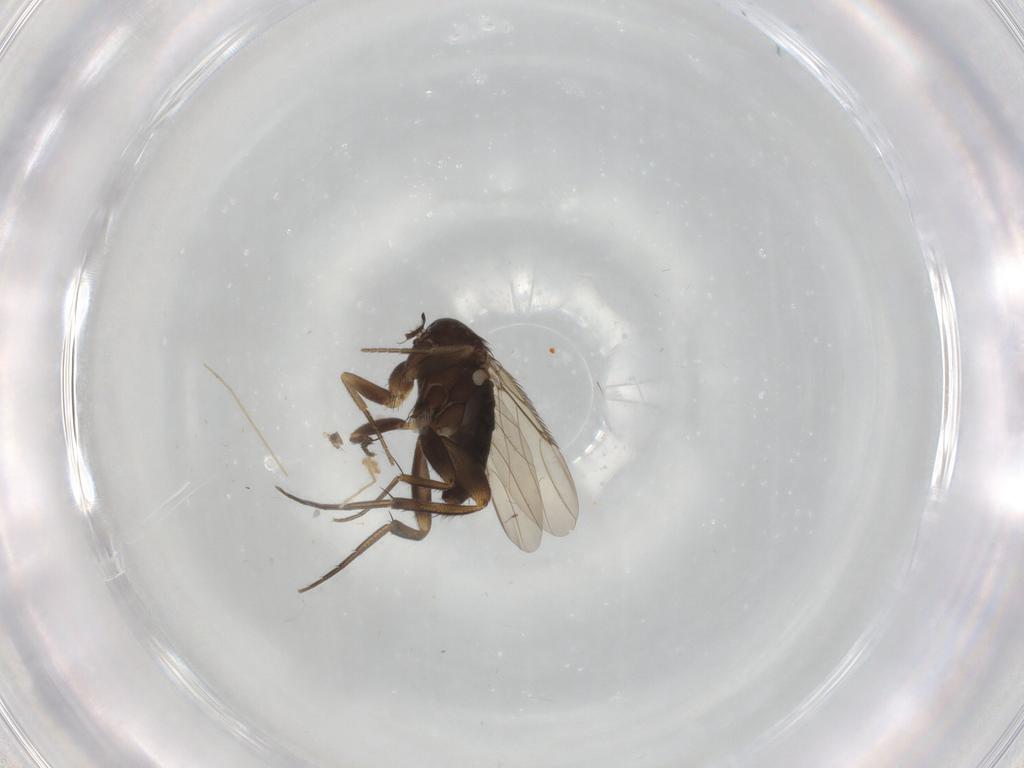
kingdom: Animalia
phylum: Arthropoda
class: Insecta
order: Diptera
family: Phoridae
